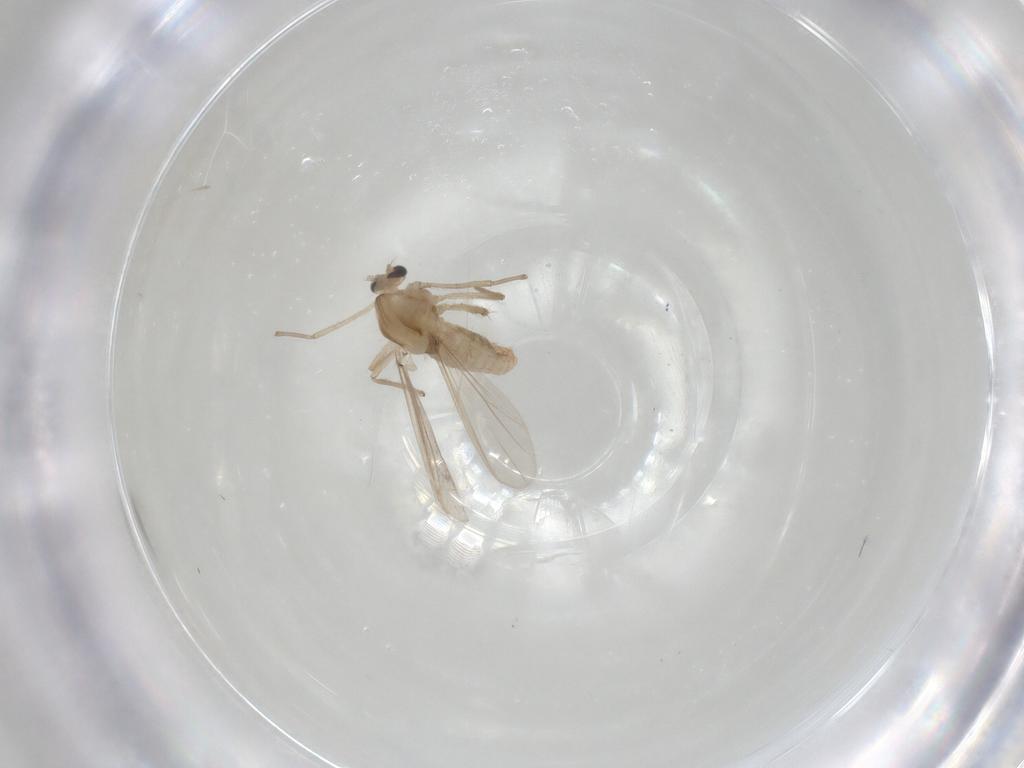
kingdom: Animalia
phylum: Arthropoda
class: Insecta
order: Diptera
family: Chironomidae
